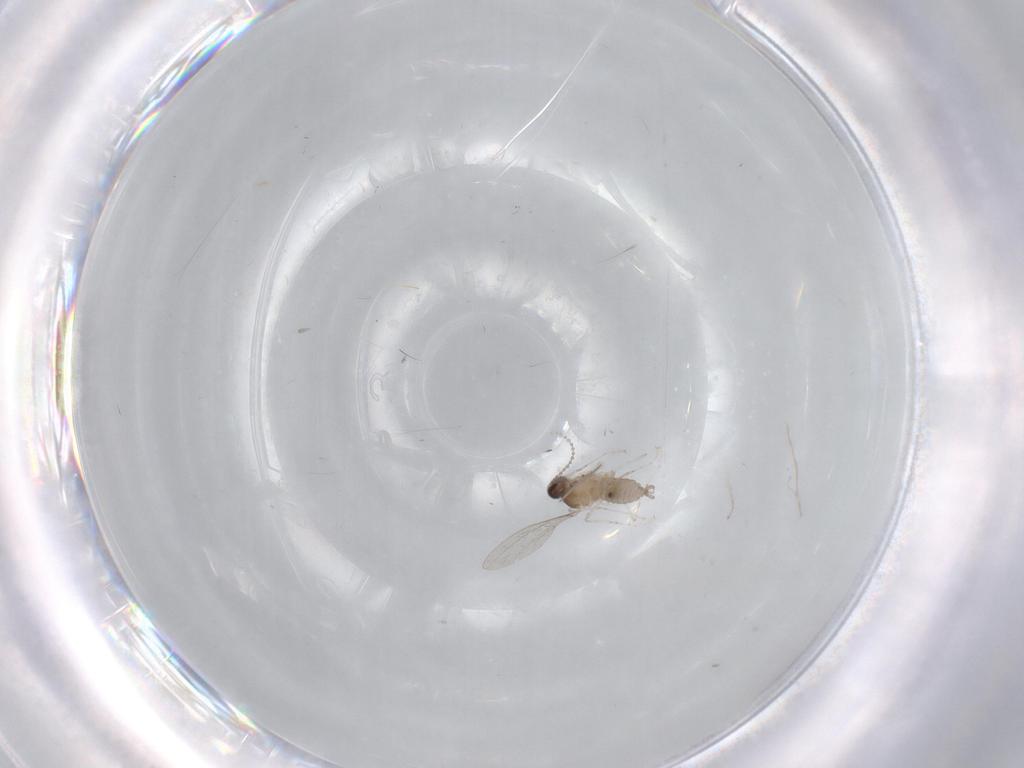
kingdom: Animalia
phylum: Arthropoda
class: Insecta
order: Diptera
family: Cecidomyiidae
